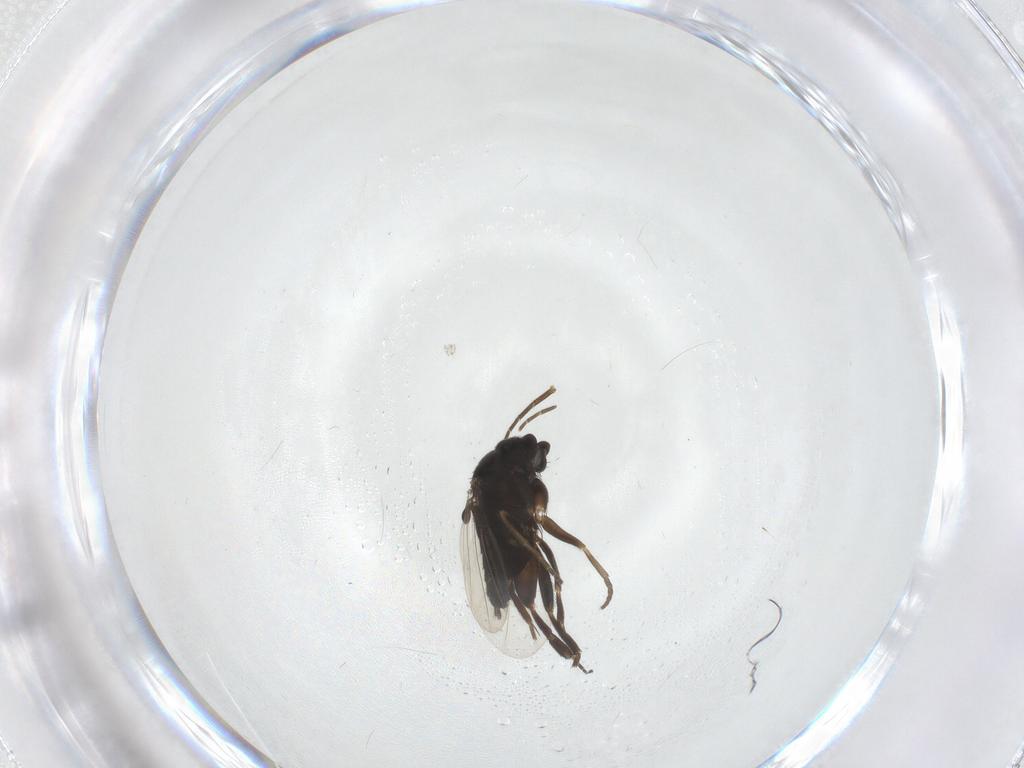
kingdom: Animalia
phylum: Arthropoda
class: Insecta
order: Diptera
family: Phoridae
